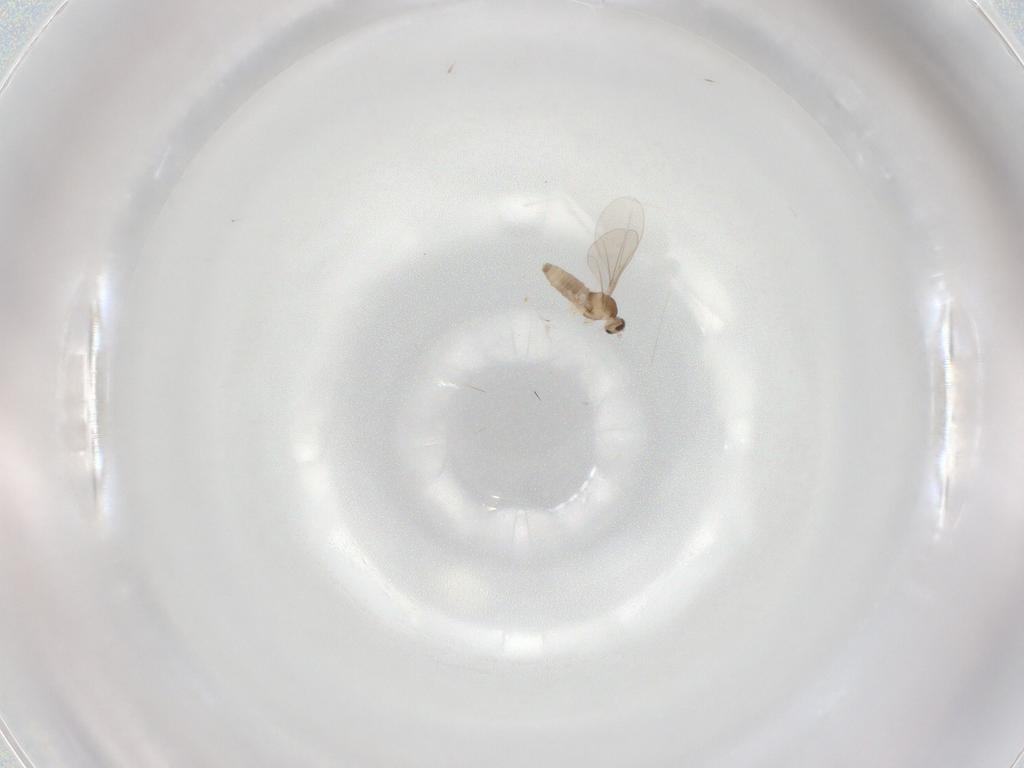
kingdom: Animalia
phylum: Arthropoda
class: Insecta
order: Diptera
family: Cecidomyiidae
